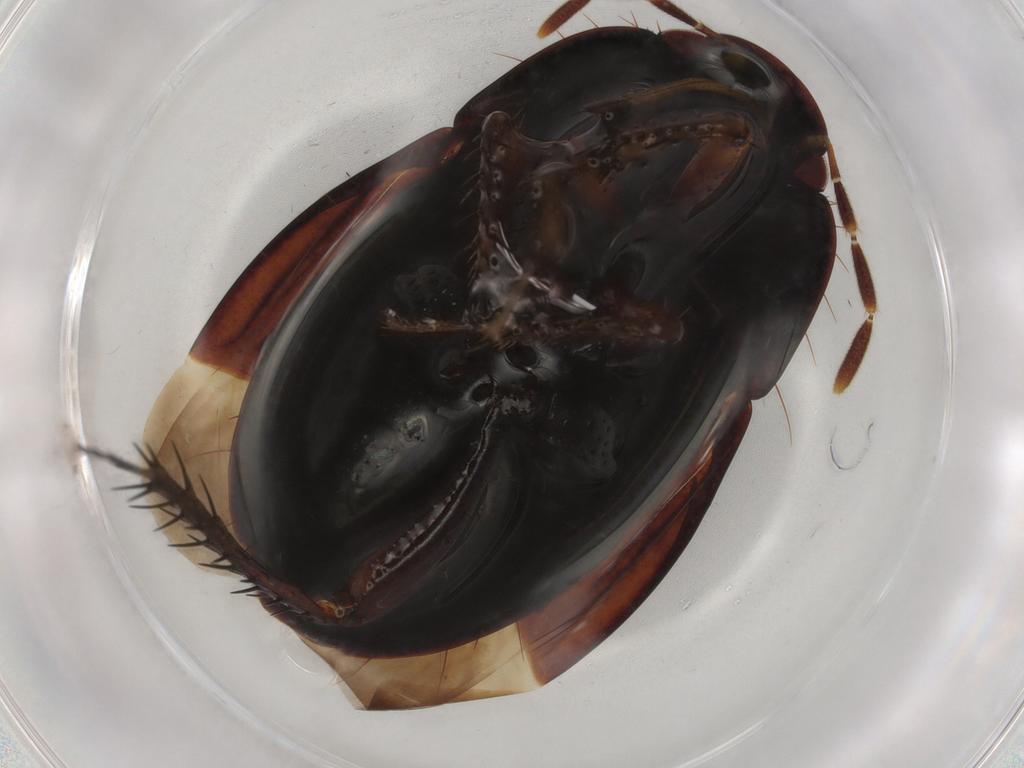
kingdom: Animalia
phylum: Arthropoda
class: Insecta
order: Hemiptera
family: Cydnidae
